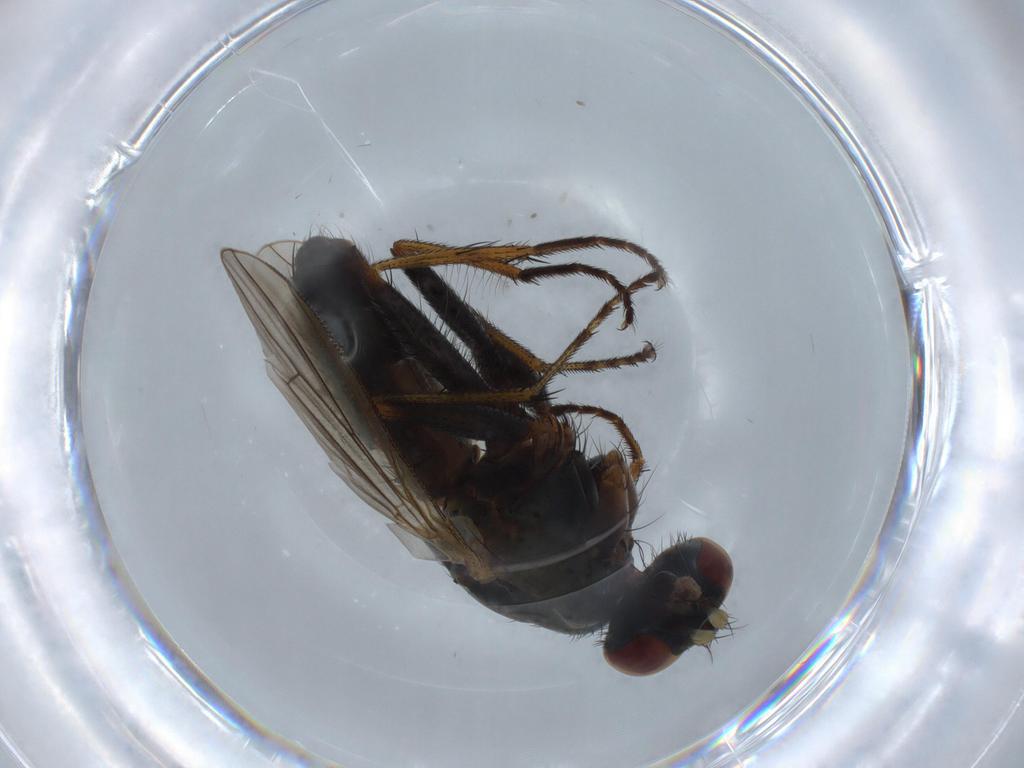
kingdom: Animalia
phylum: Arthropoda
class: Insecta
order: Diptera
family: Muscidae
